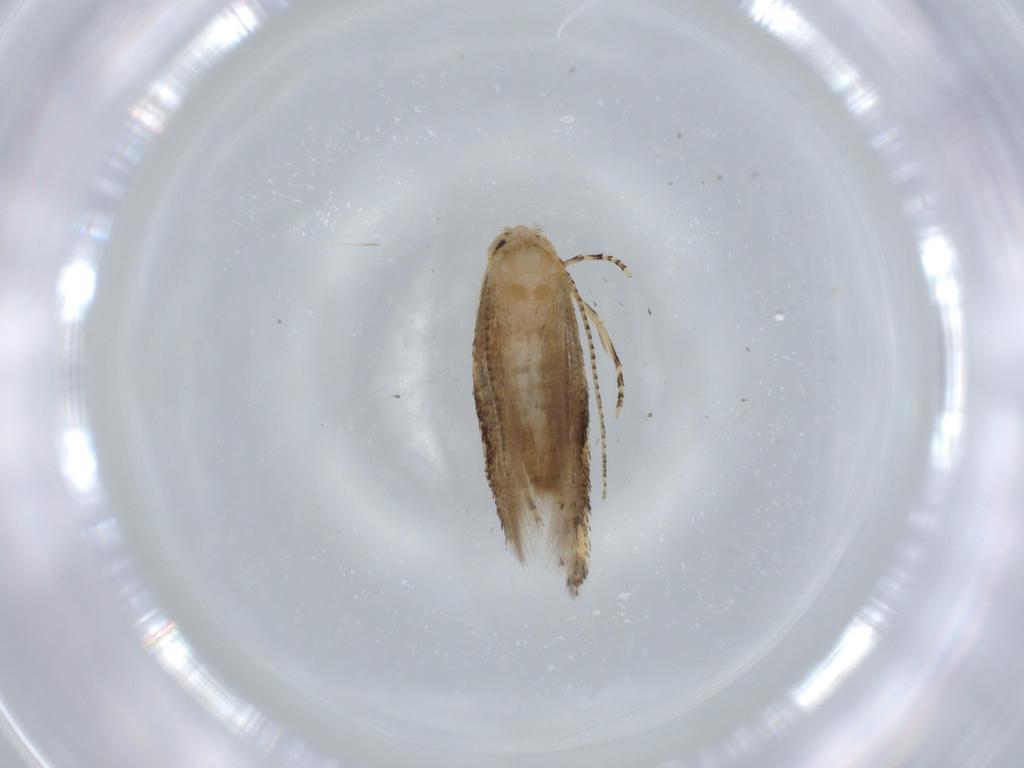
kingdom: Animalia
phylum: Arthropoda
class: Insecta
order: Lepidoptera
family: Bucculatricidae
